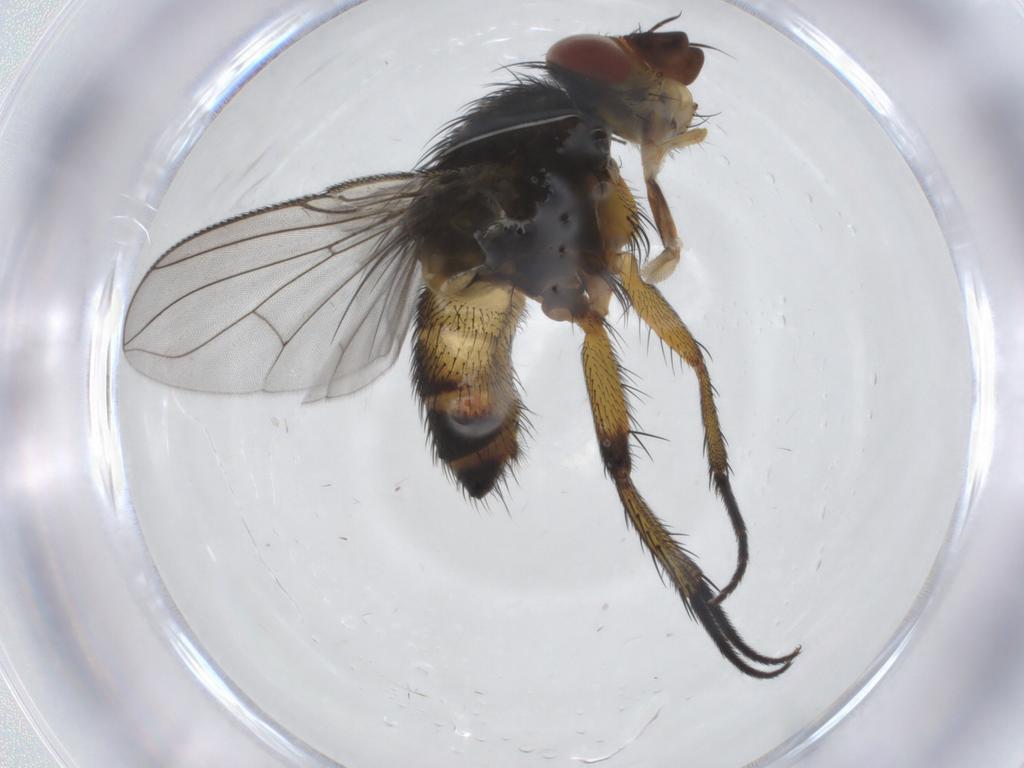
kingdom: Animalia
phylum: Arthropoda
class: Insecta
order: Diptera
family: Tachinidae
